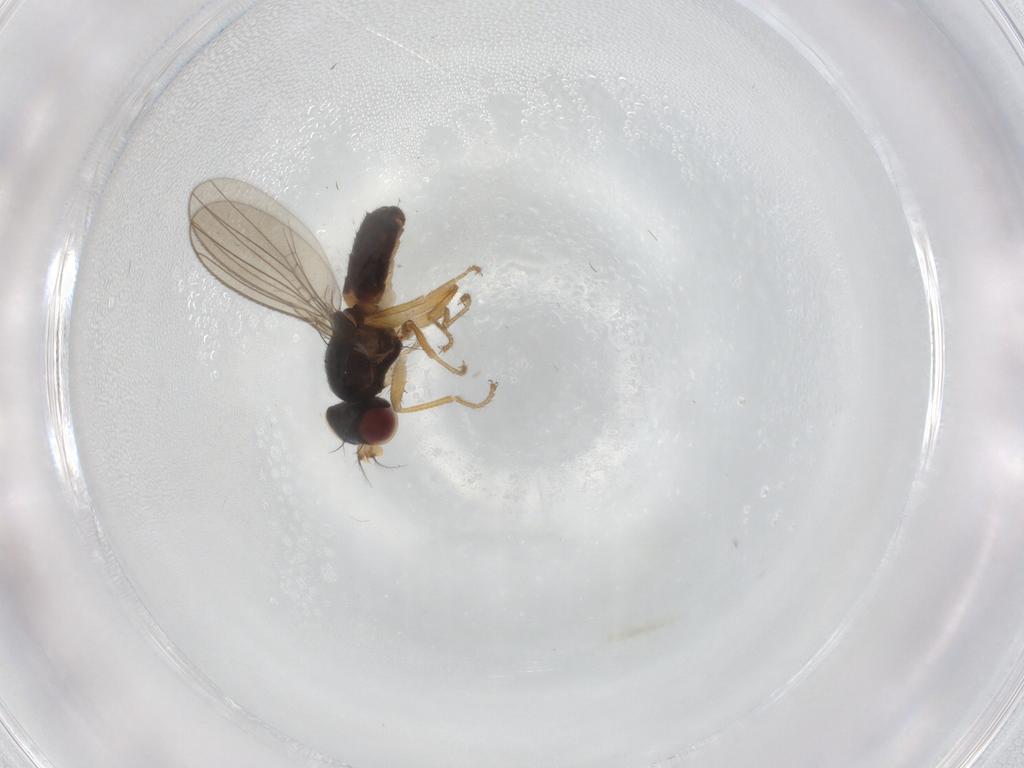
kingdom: Animalia
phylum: Arthropoda
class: Insecta
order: Diptera
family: Anthomyzidae
